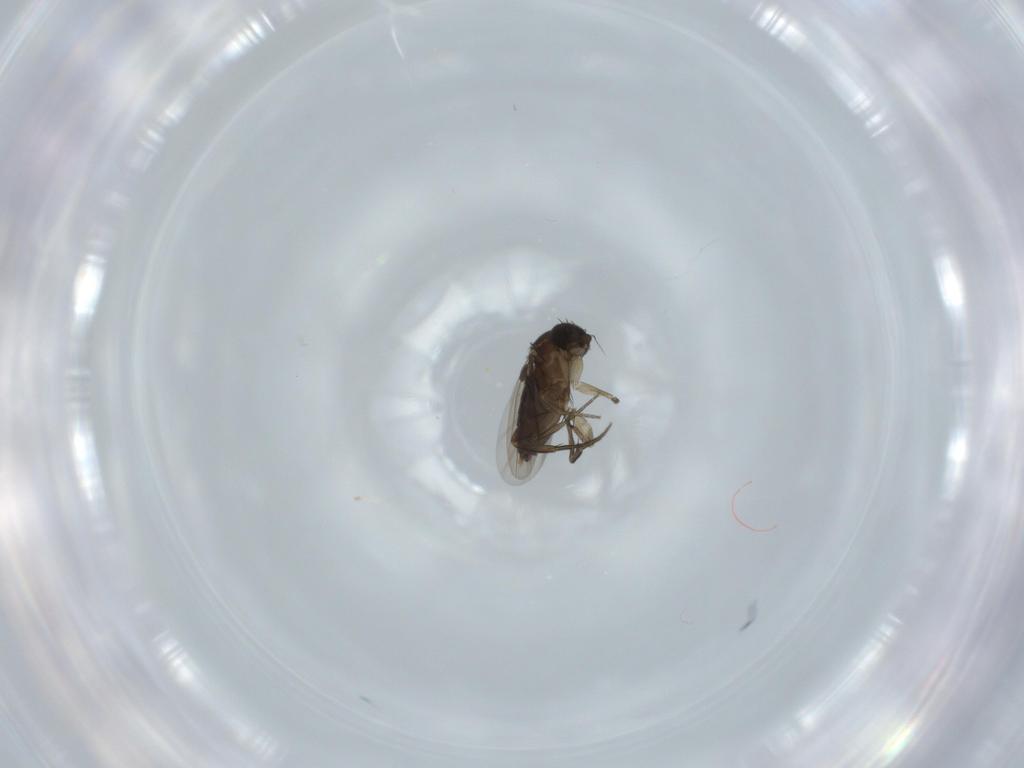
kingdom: Animalia
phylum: Arthropoda
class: Insecta
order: Diptera
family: Phoridae
